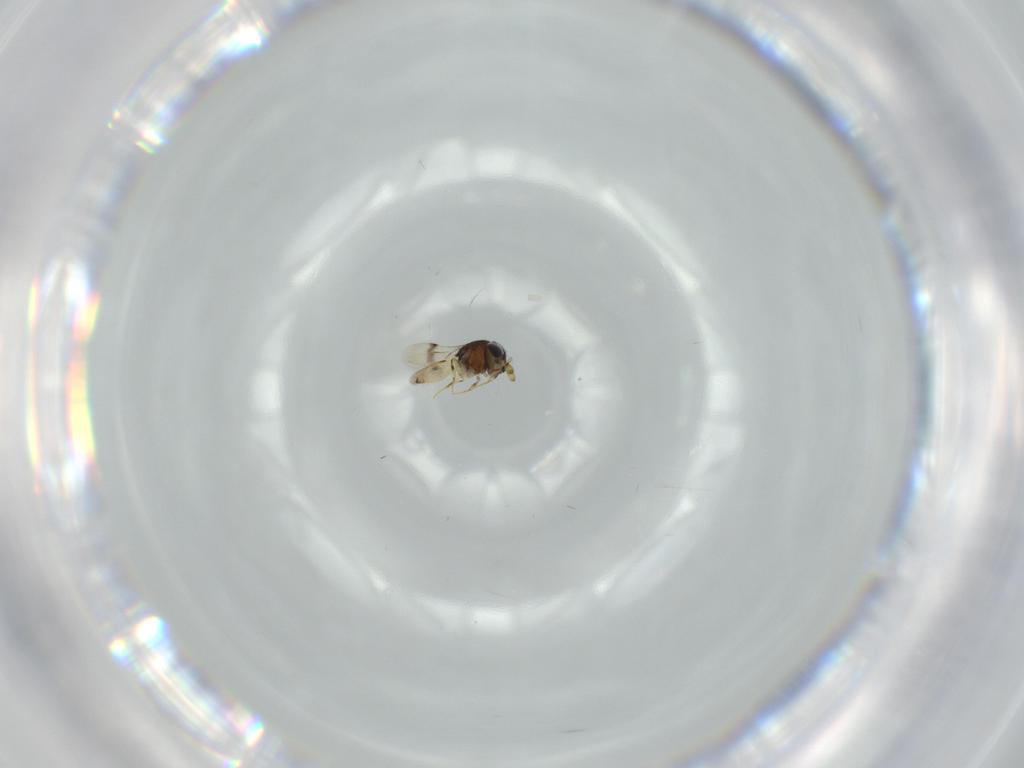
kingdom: Animalia
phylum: Arthropoda
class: Insecta
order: Hymenoptera
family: Scelionidae
